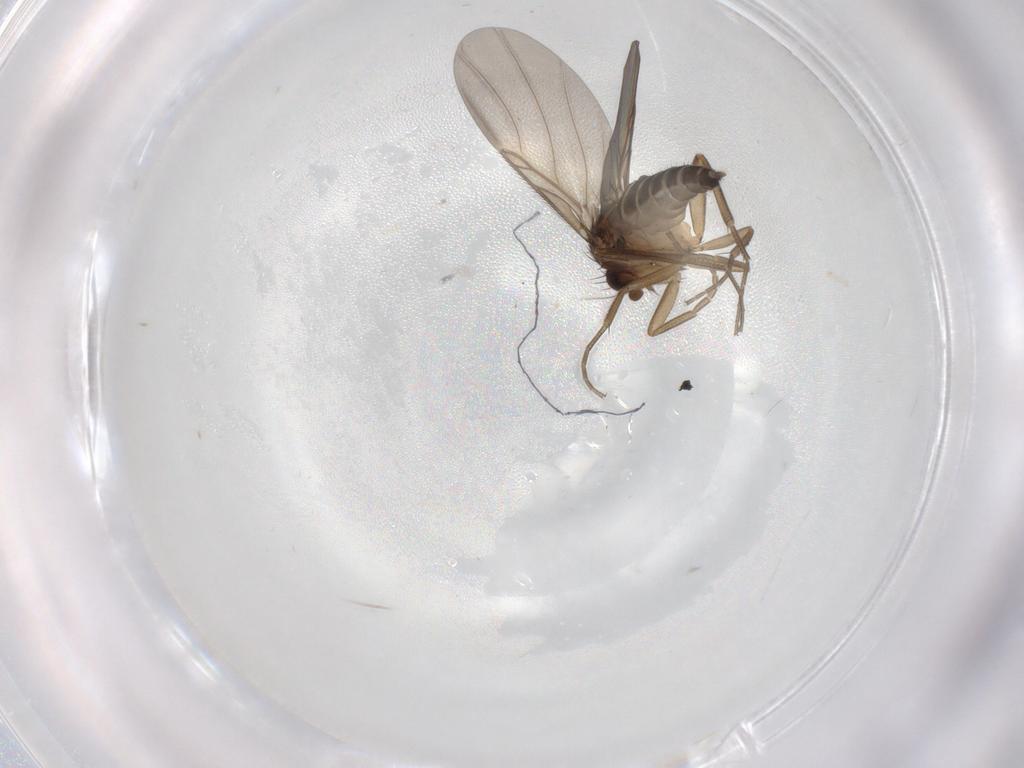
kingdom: Animalia
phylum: Arthropoda
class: Insecta
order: Diptera
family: Phoridae
